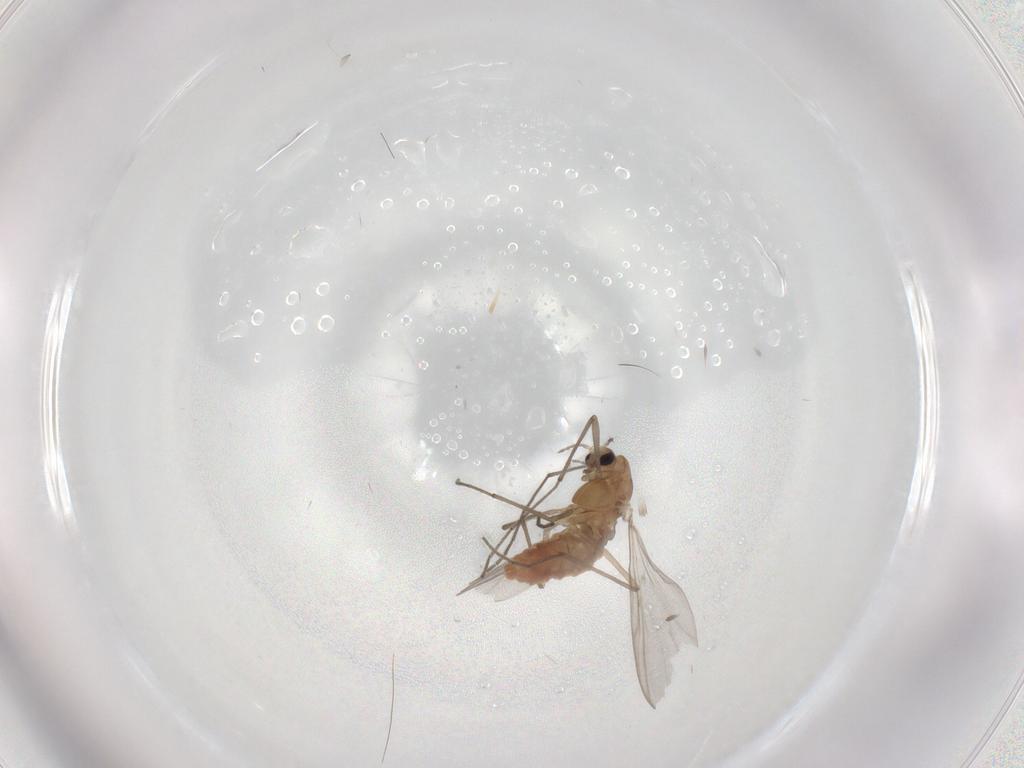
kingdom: Animalia
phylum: Arthropoda
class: Insecta
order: Diptera
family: Chironomidae
